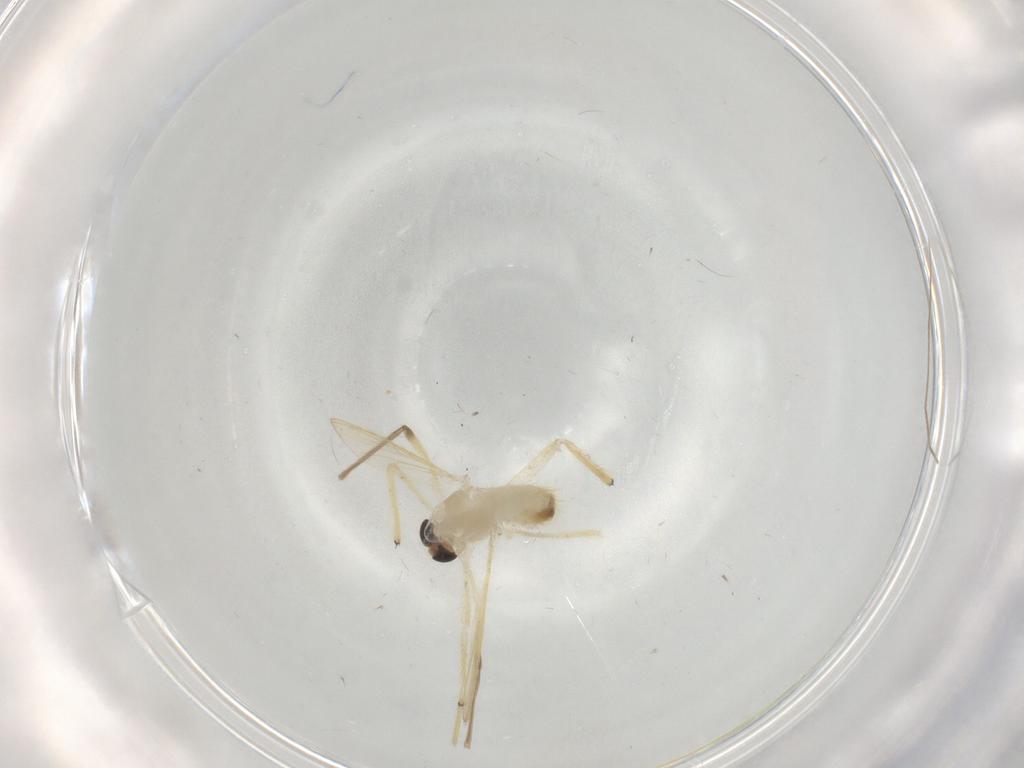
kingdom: Animalia
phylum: Arthropoda
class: Insecta
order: Diptera
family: Chironomidae
